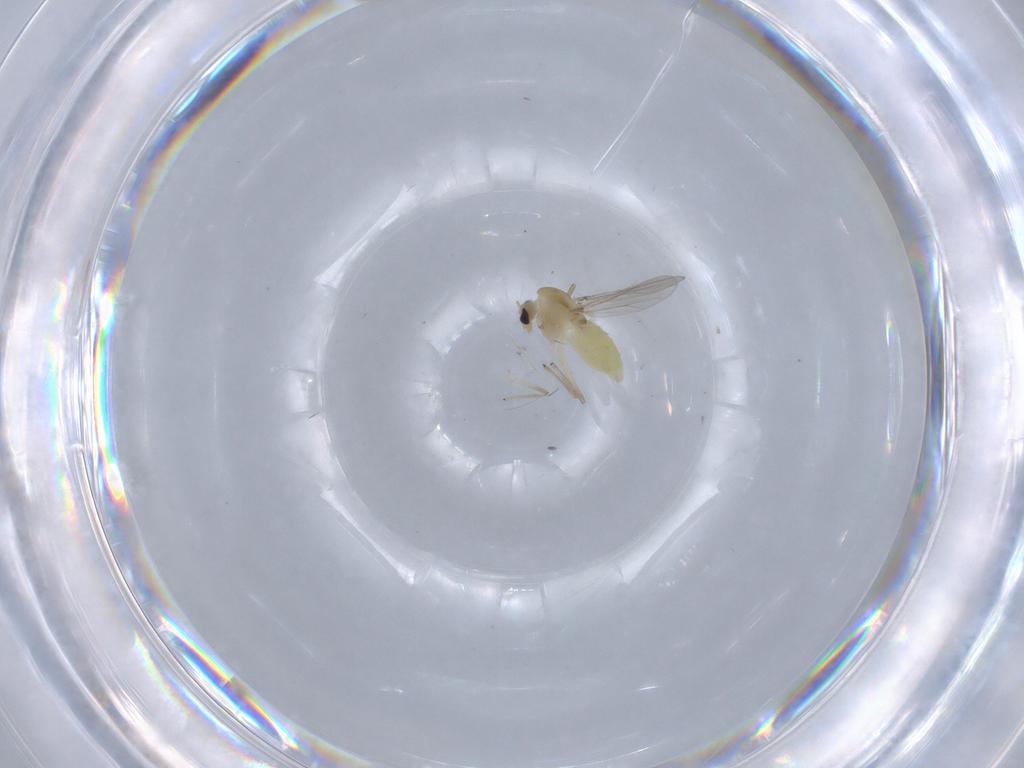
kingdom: Animalia
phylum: Arthropoda
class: Insecta
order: Diptera
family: Chironomidae
